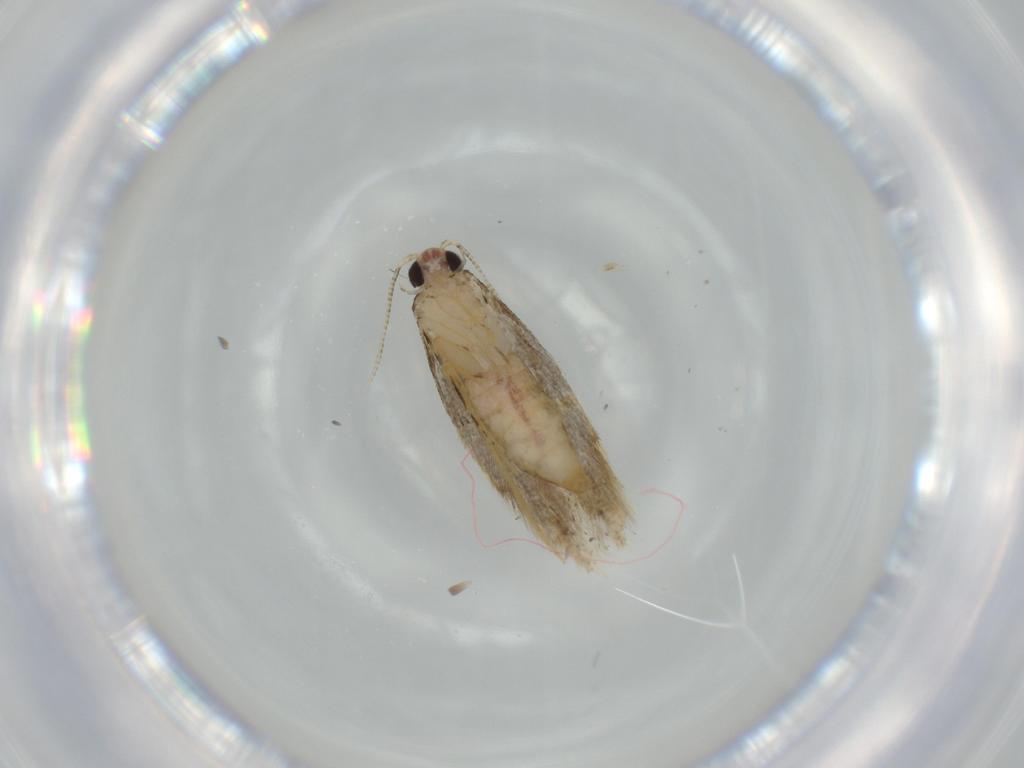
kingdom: Animalia
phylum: Arthropoda
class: Insecta
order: Lepidoptera
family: Tineidae
